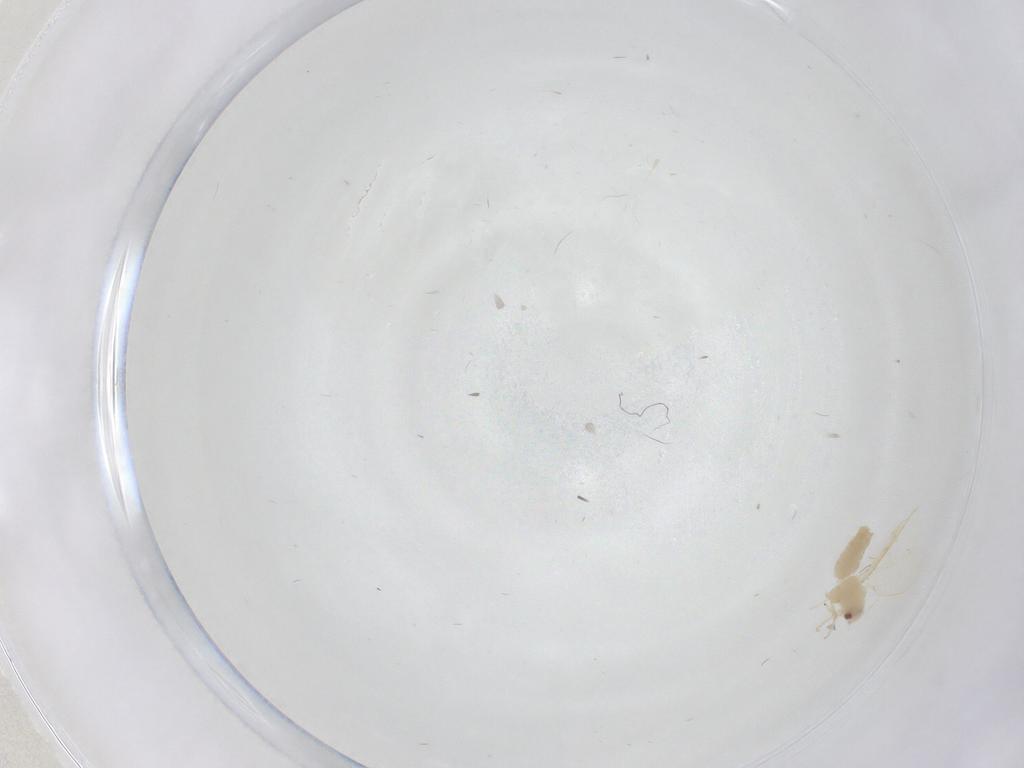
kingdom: Animalia
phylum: Arthropoda
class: Insecta
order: Hemiptera
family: Aleyrodidae
